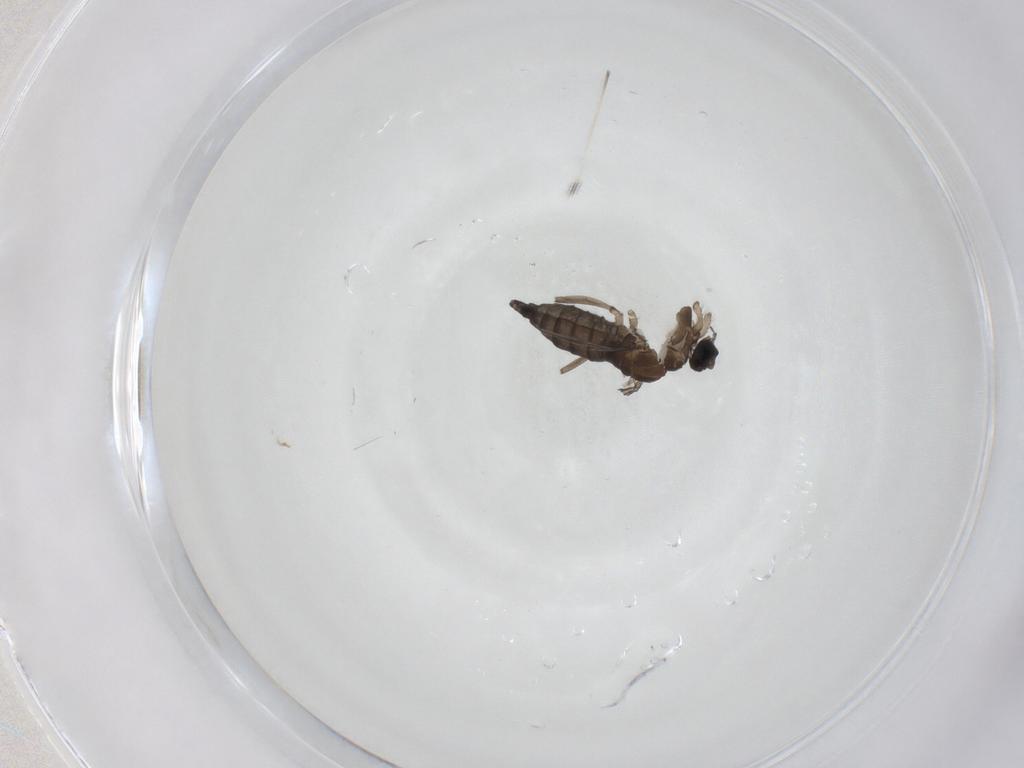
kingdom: Animalia
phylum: Arthropoda
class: Insecta
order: Diptera
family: Sciaridae
